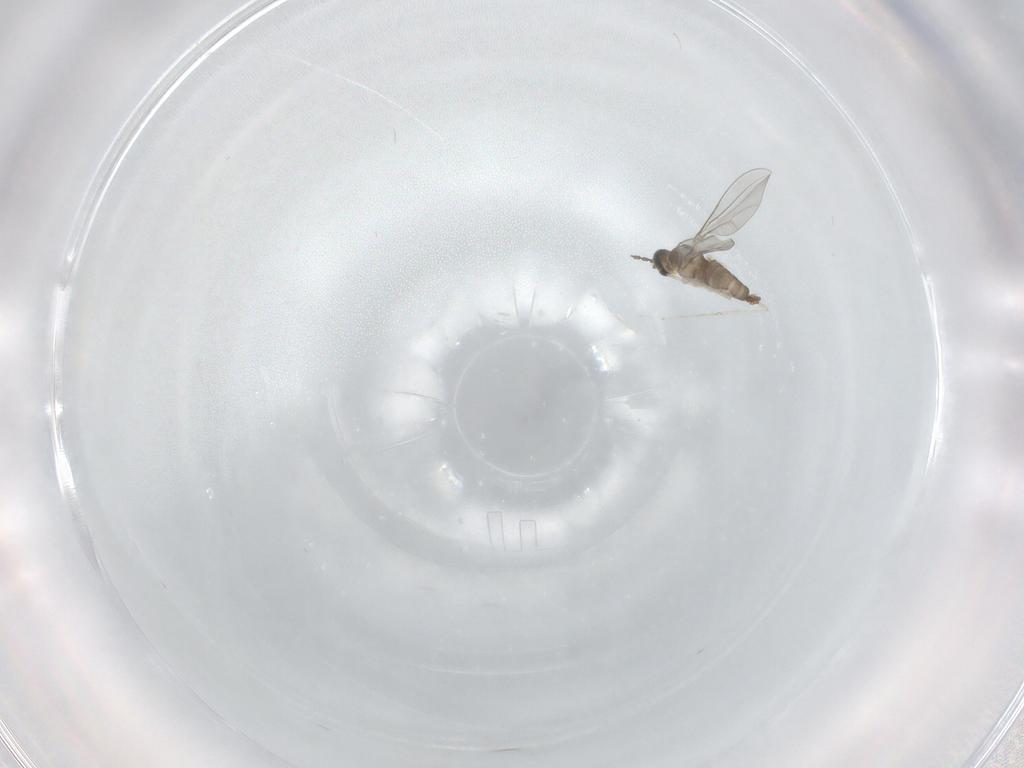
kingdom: Animalia
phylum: Arthropoda
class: Insecta
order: Diptera
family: Cecidomyiidae
